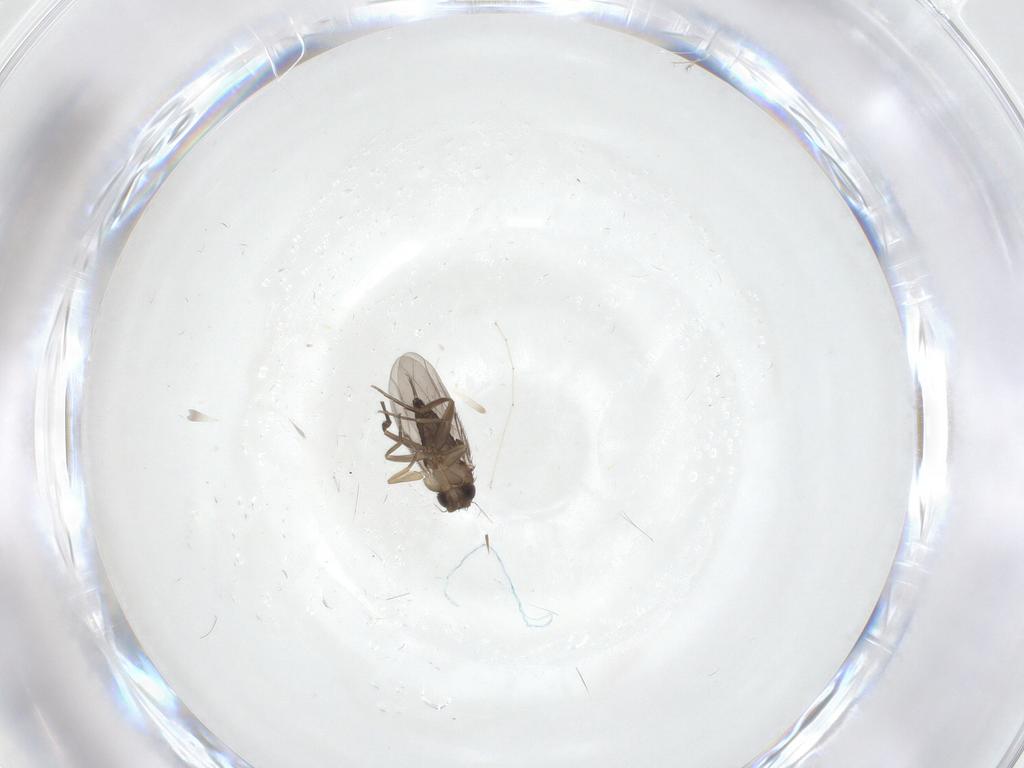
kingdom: Animalia
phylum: Arthropoda
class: Insecta
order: Diptera
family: Phoridae
